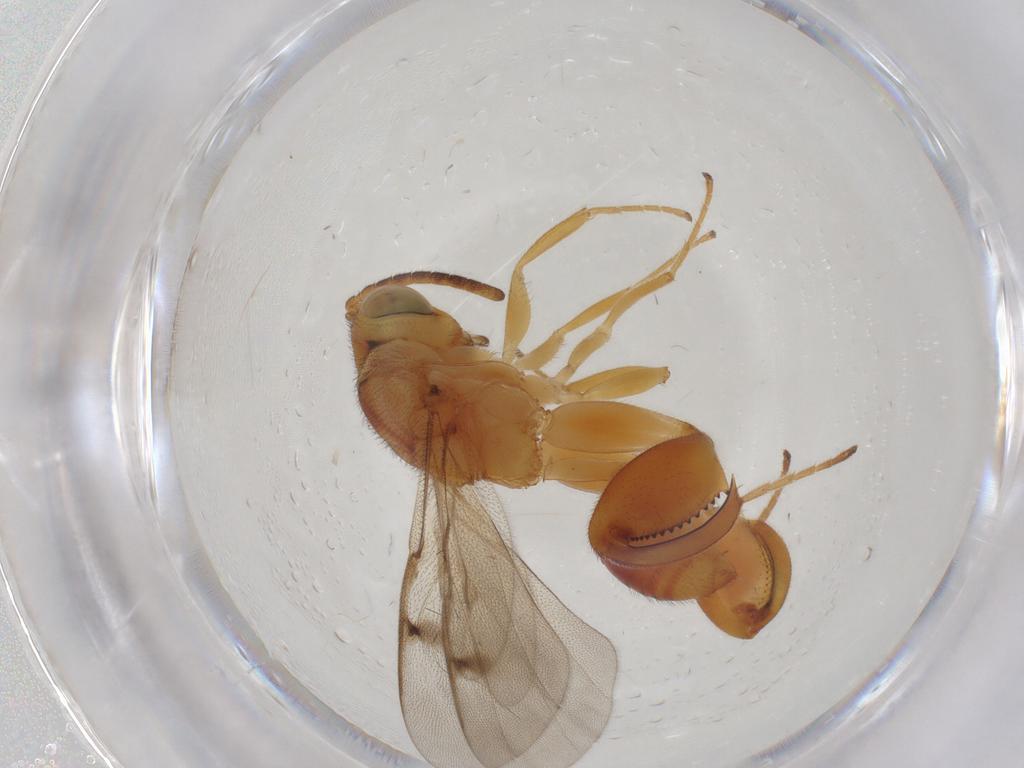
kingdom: Animalia
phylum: Arthropoda
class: Insecta
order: Hymenoptera
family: Chalcididae
